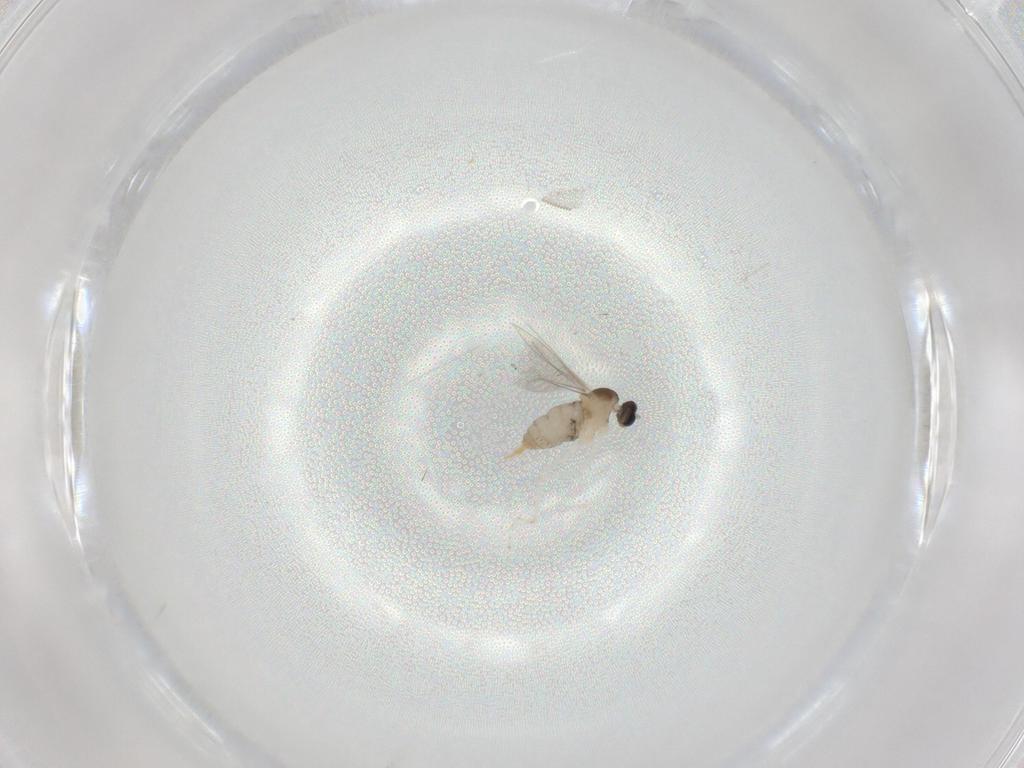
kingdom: Animalia
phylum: Arthropoda
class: Insecta
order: Diptera
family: Cecidomyiidae
